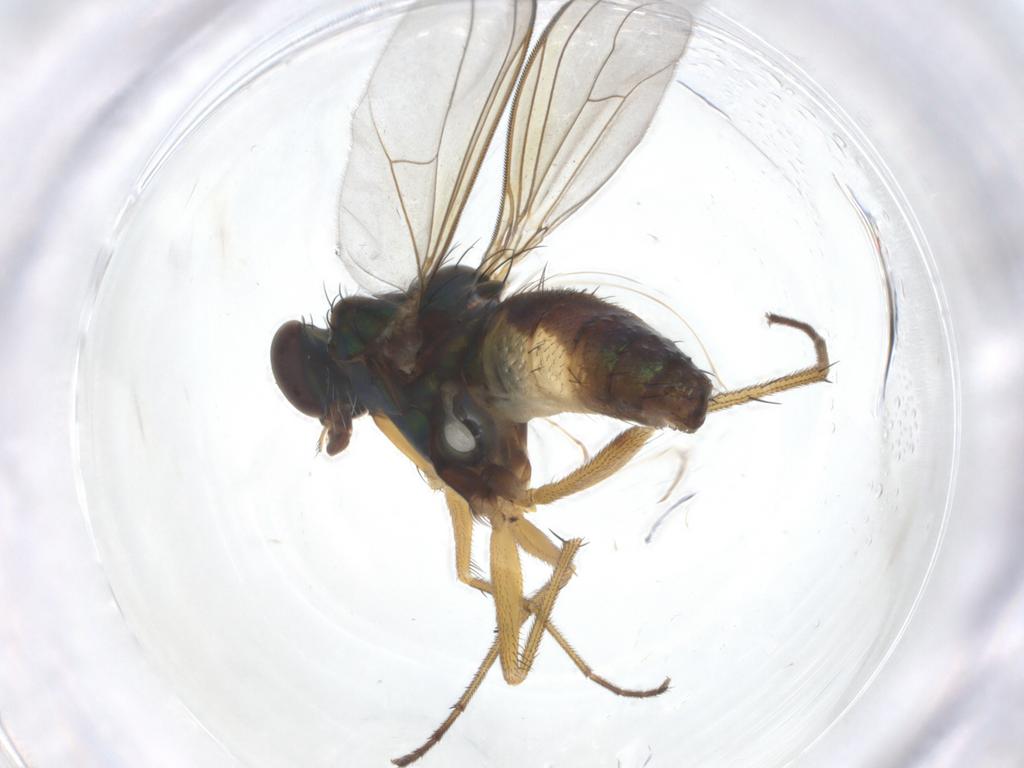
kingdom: Animalia
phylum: Arthropoda
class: Insecta
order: Diptera
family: Chironomidae
